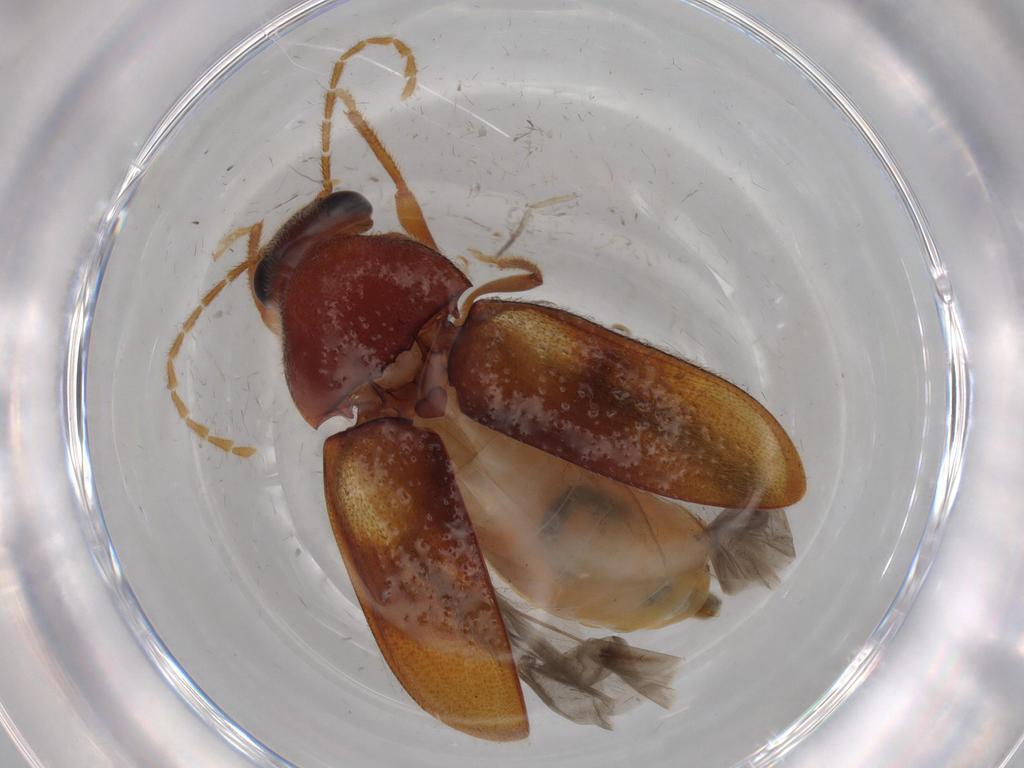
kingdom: Animalia
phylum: Arthropoda
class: Insecta
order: Coleoptera
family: Ptilodactylidae
